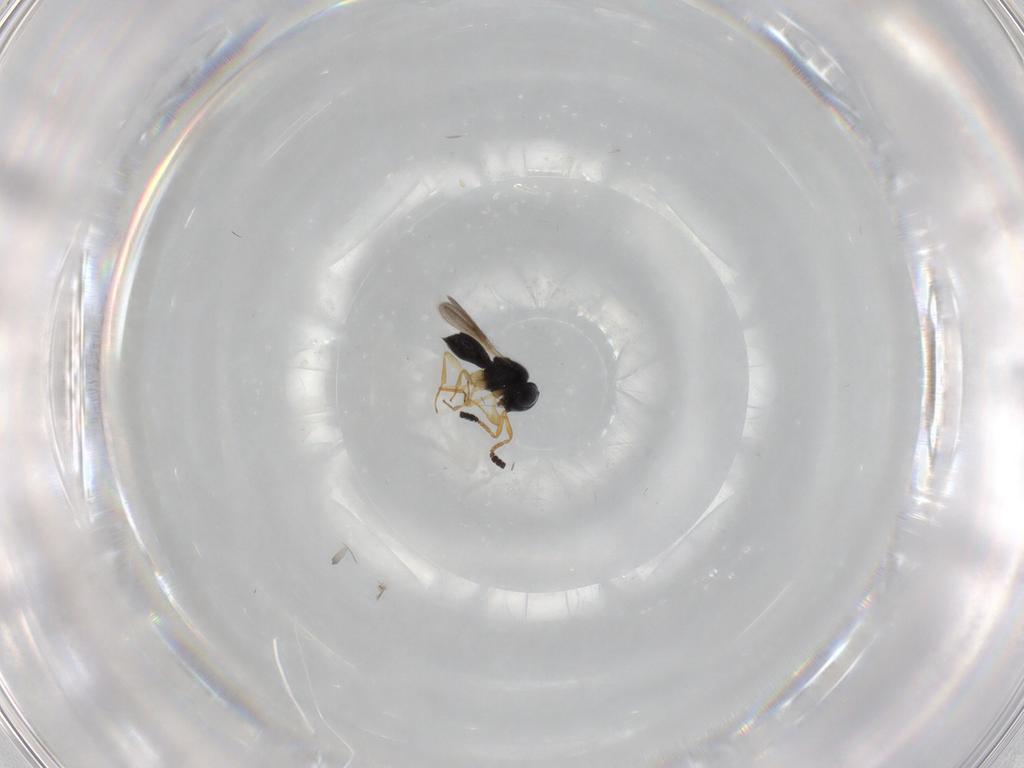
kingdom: Animalia
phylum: Arthropoda
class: Insecta
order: Hymenoptera
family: Scelionidae
